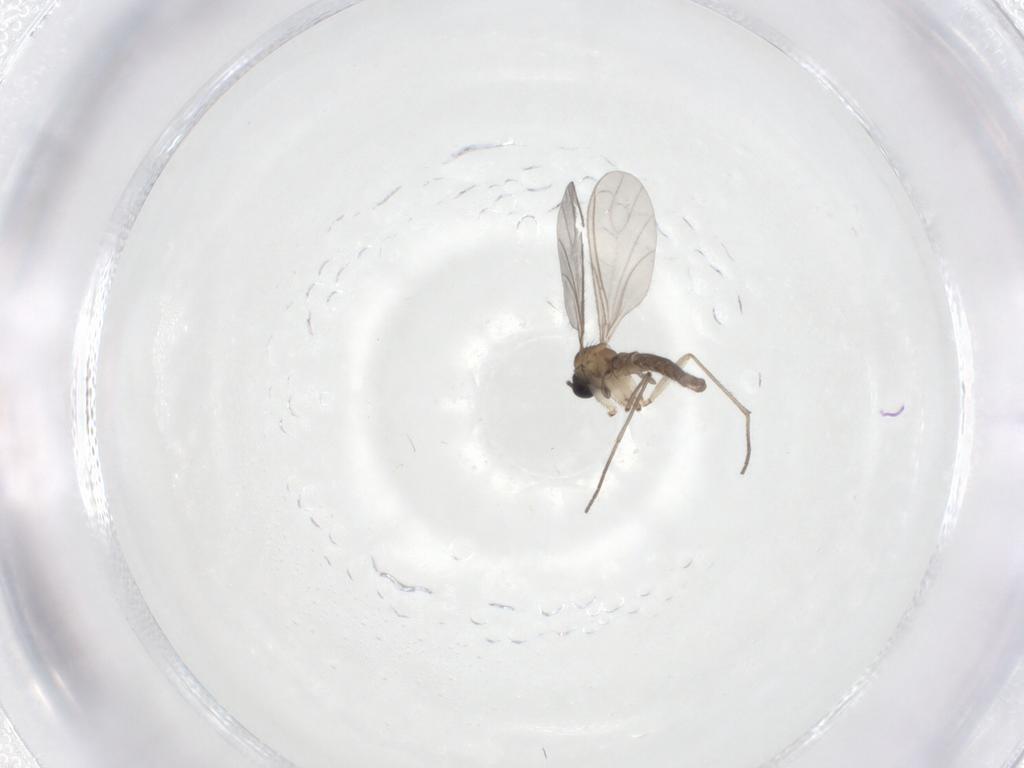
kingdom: Animalia
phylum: Arthropoda
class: Insecta
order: Diptera
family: Sciaridae
